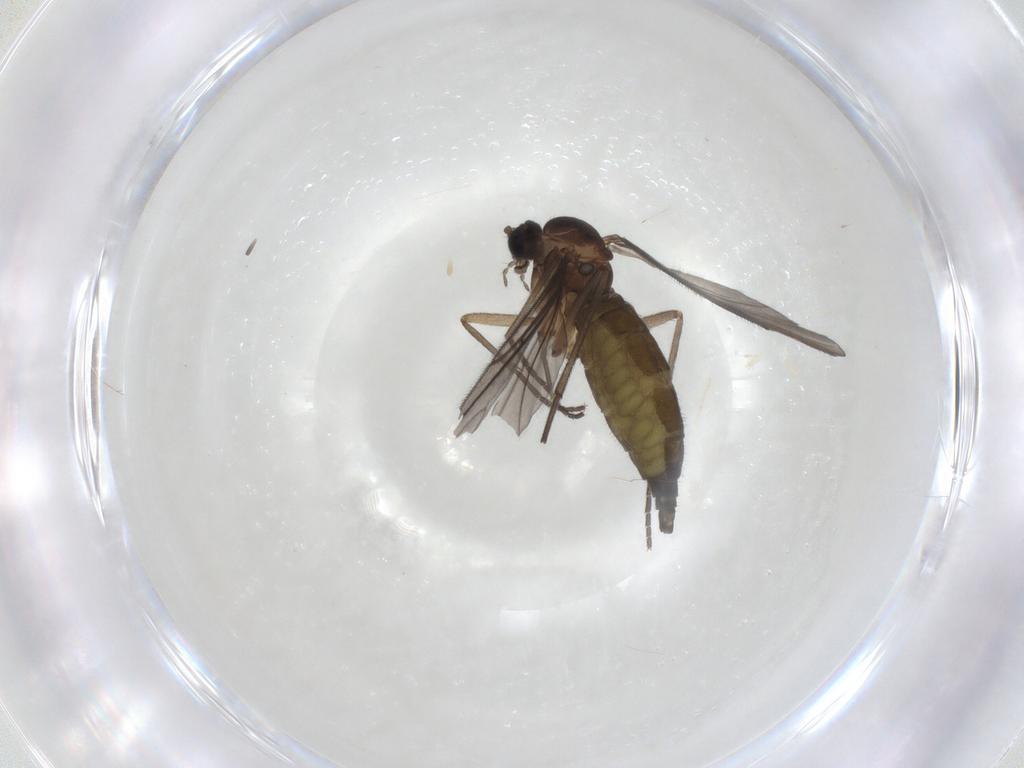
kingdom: Animalia
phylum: Arthropoda
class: Insecta
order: Diptera
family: Sciaridae
